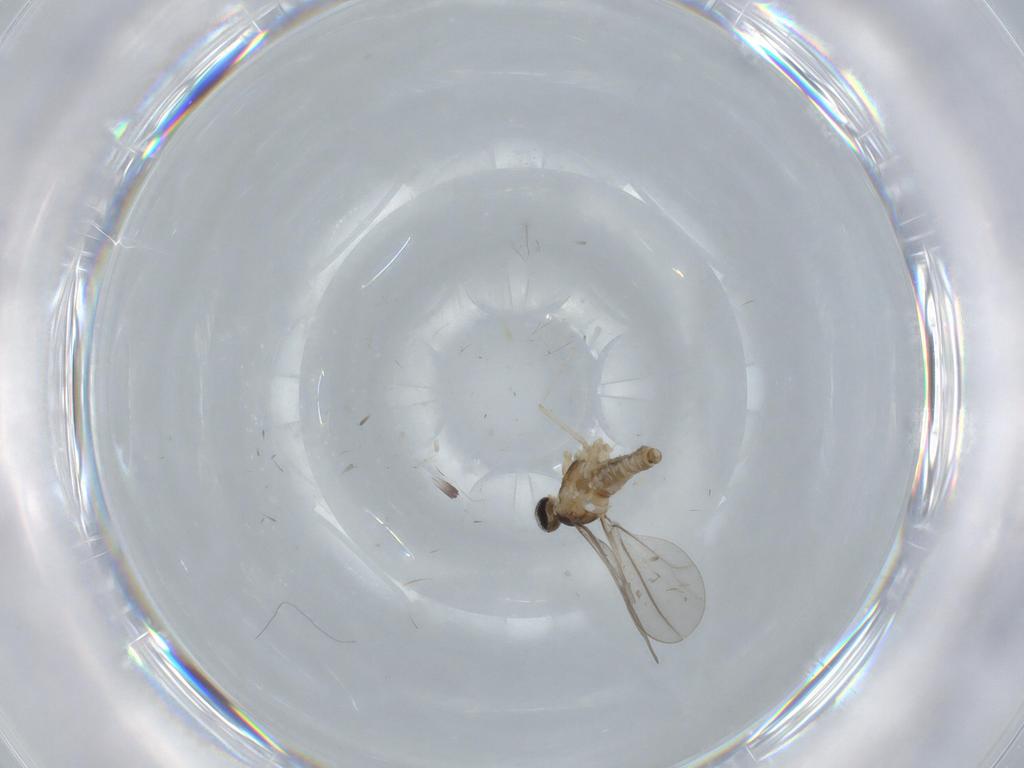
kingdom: Animalia
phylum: Arthropoda
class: Insecta
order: Diptera
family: Cecidomyiidae
